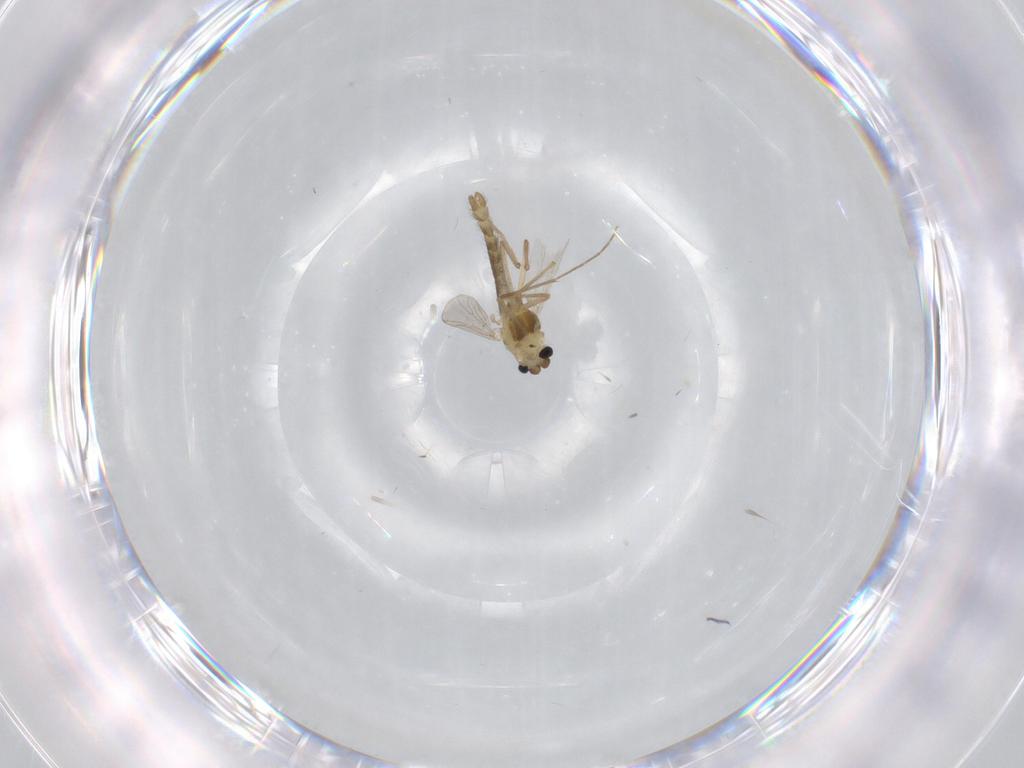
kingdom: Animalia
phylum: Arthropoda
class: Insecta
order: Diptera
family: Chironomidae
